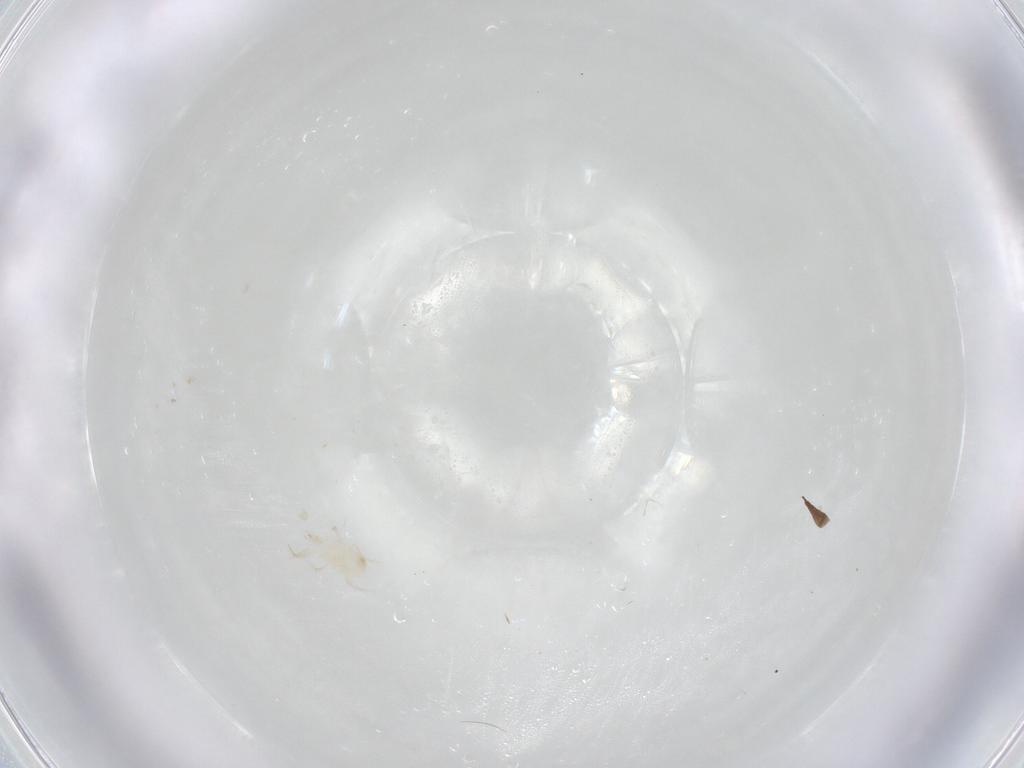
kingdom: Animalia
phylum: Arthropoda
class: Arachnida
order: Mesostigmata
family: Phytoseiidae
